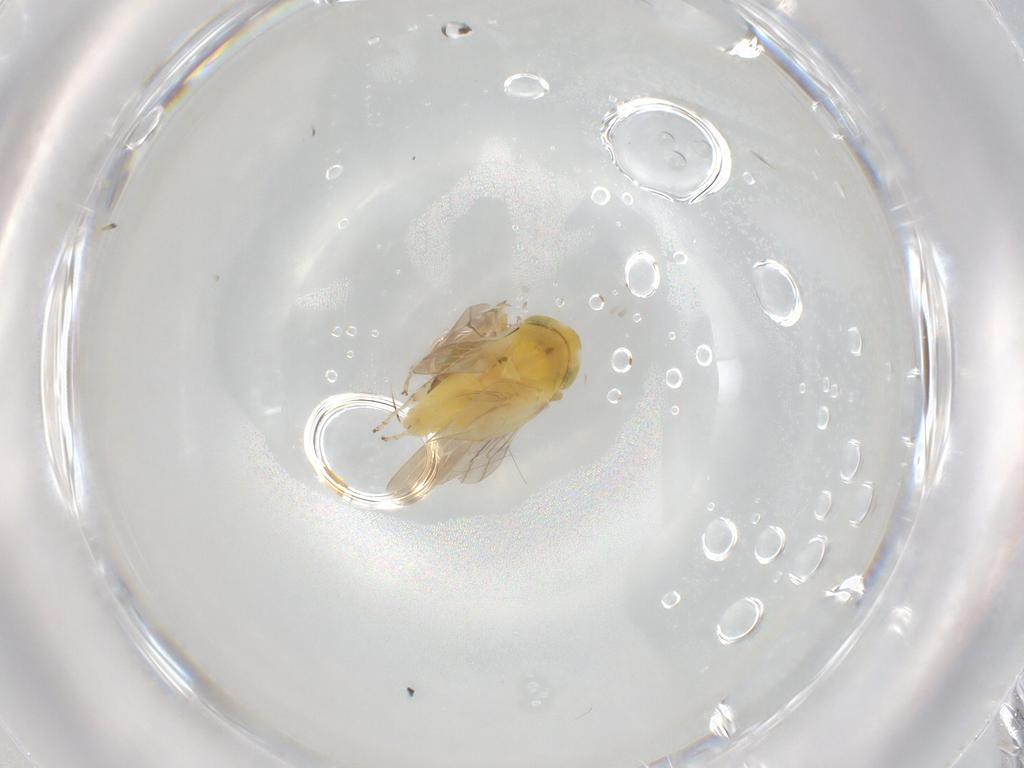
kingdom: Animalia
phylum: Arthropoda
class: Insecta
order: Hemiptera
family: Cicadellidae
